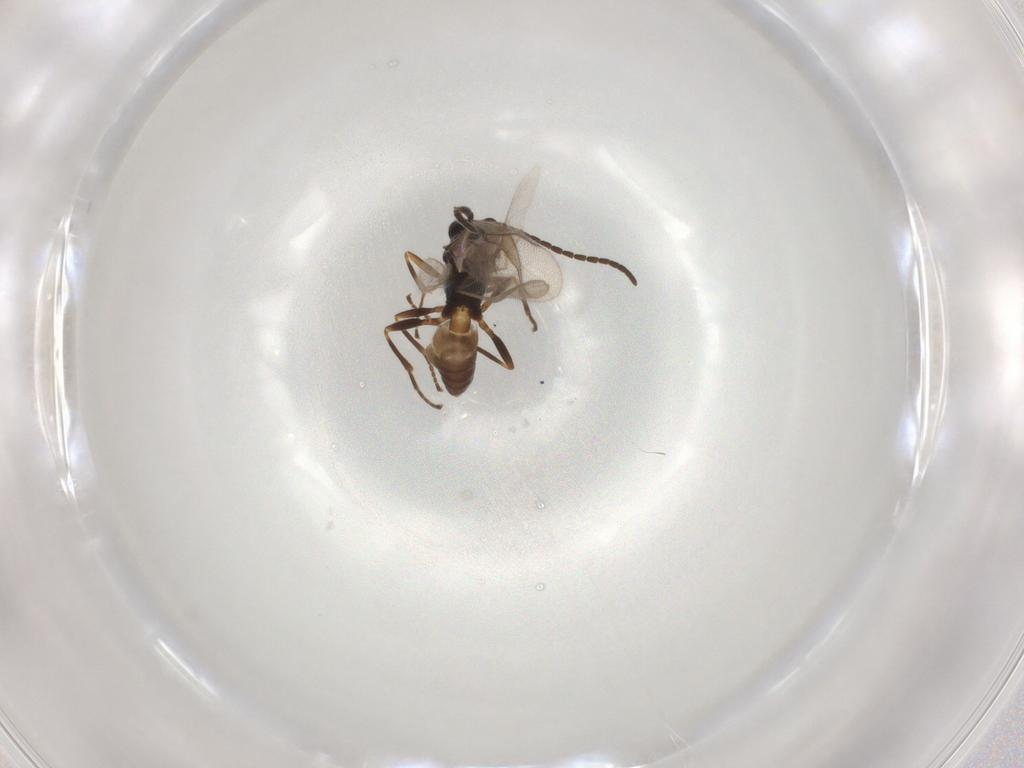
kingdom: Animalia
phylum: Arthropoda
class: Insecta
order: Hymenoptera
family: Braconidae
